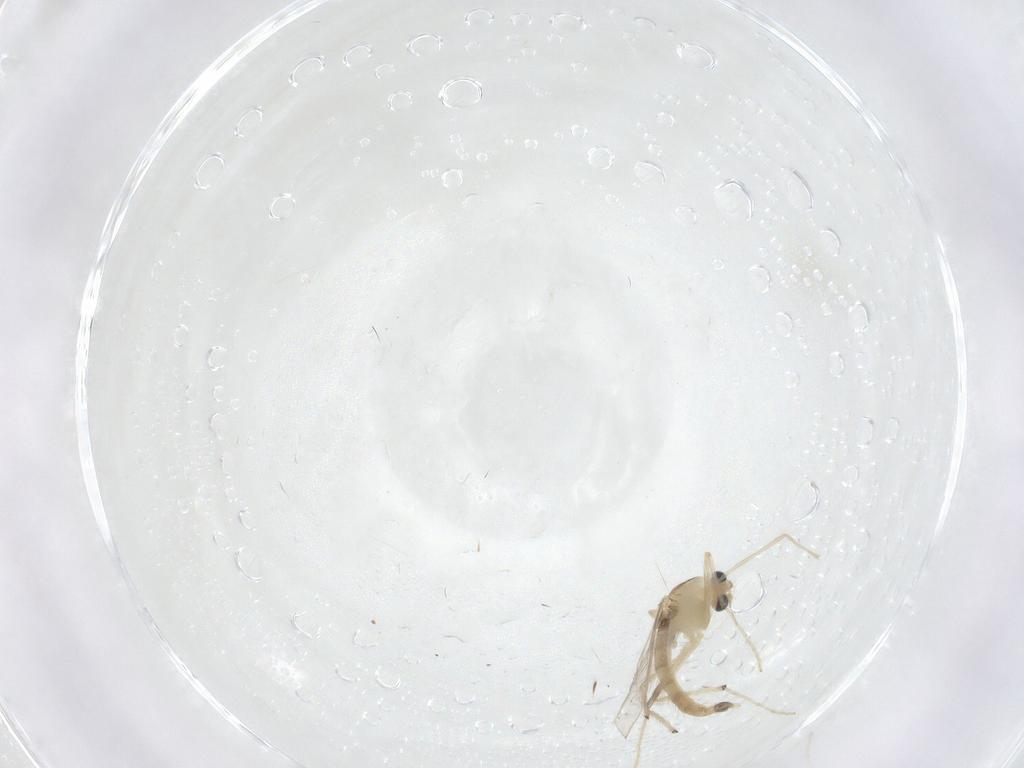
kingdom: Animalia
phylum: Arthropoda
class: Insecta
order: Diptera
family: Chironomidae
